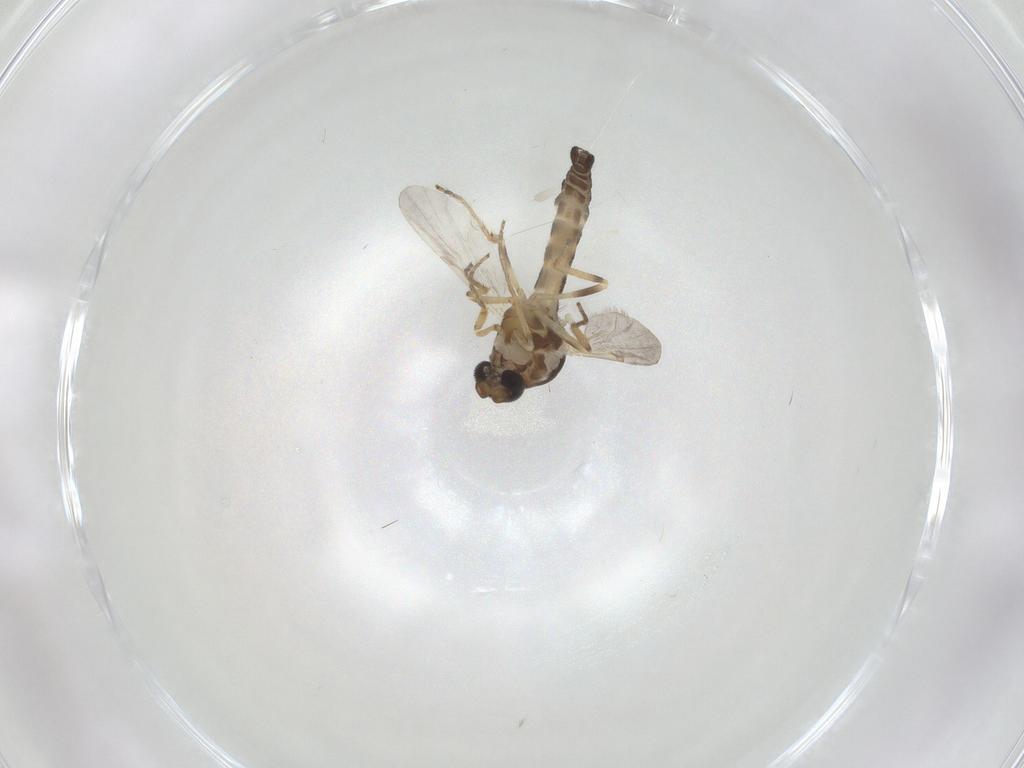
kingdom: Animalia
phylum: Arthropoda
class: Insecta
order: Diptera
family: Ceratopogonidae
